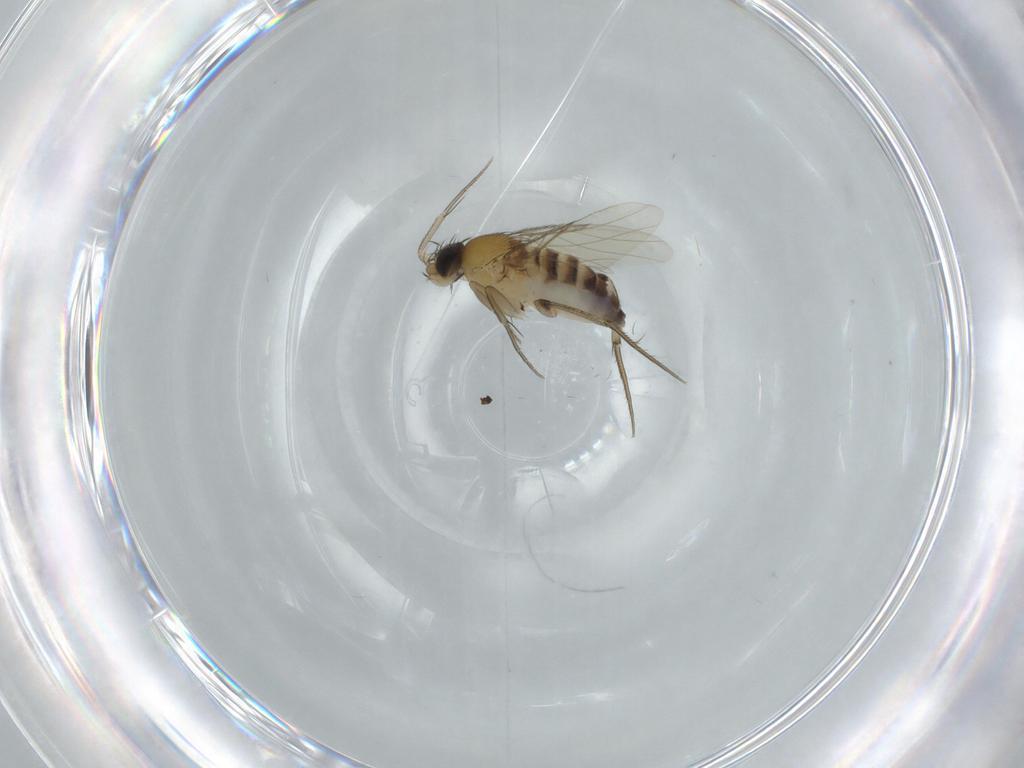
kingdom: Animalia
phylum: Arthropoda
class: Insecta
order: Diptera
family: Phoridae
